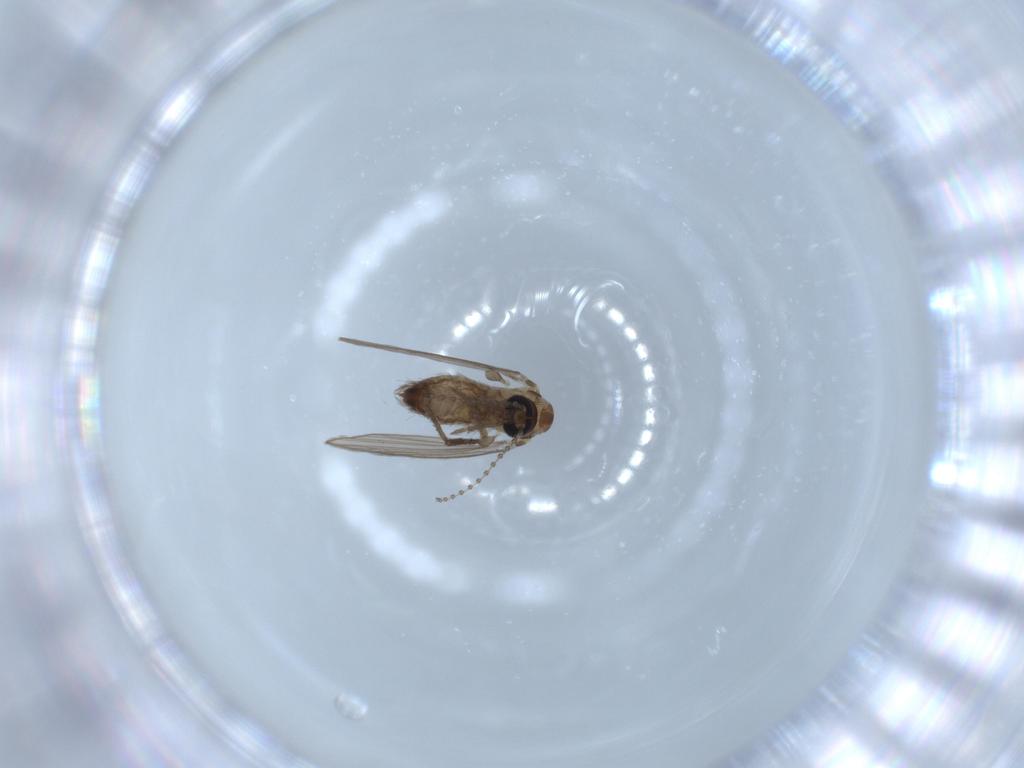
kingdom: Animalia
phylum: Arthropoda
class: Insecta
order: Diptera
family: Psychodidae
